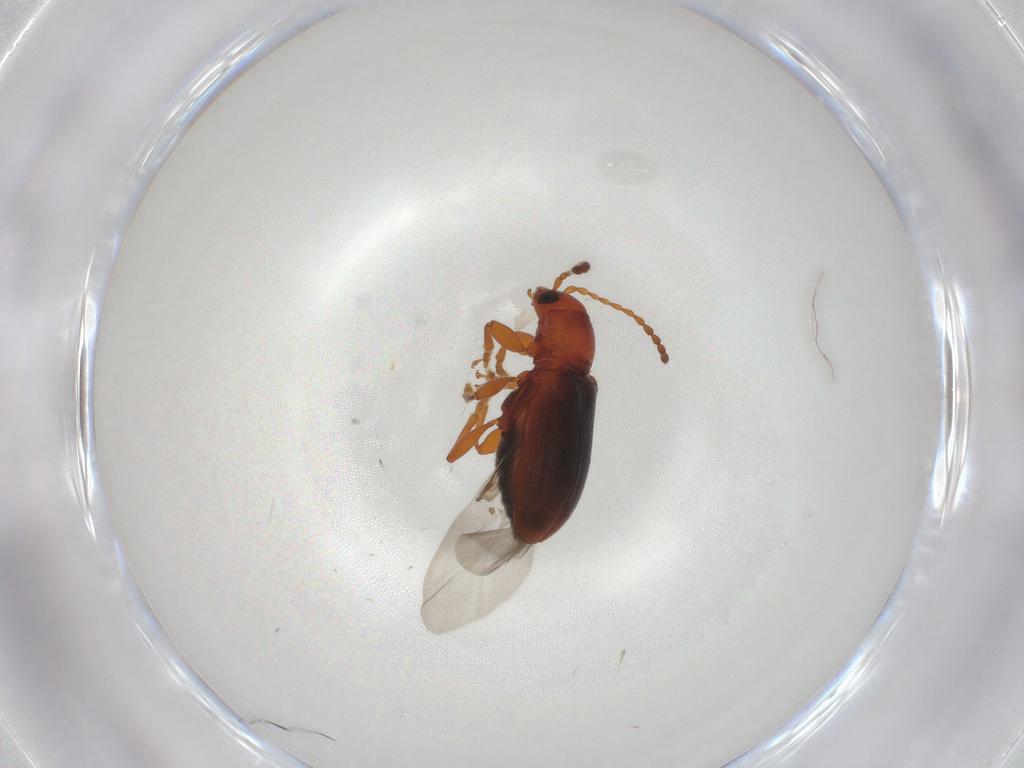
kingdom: Animalia
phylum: Arthropoda
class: Insecta
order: Coleoptera
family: Chrysomelidae
